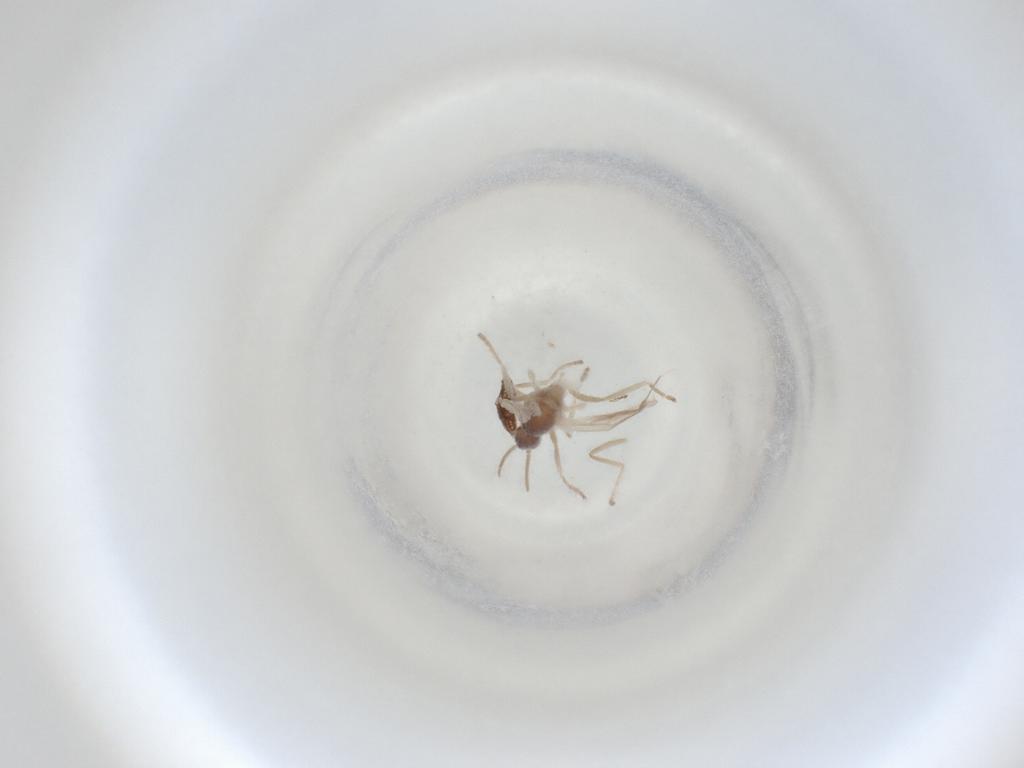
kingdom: Animalia
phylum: Arthropoda
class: Insecta
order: Diptera
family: Cecidomyiidae
